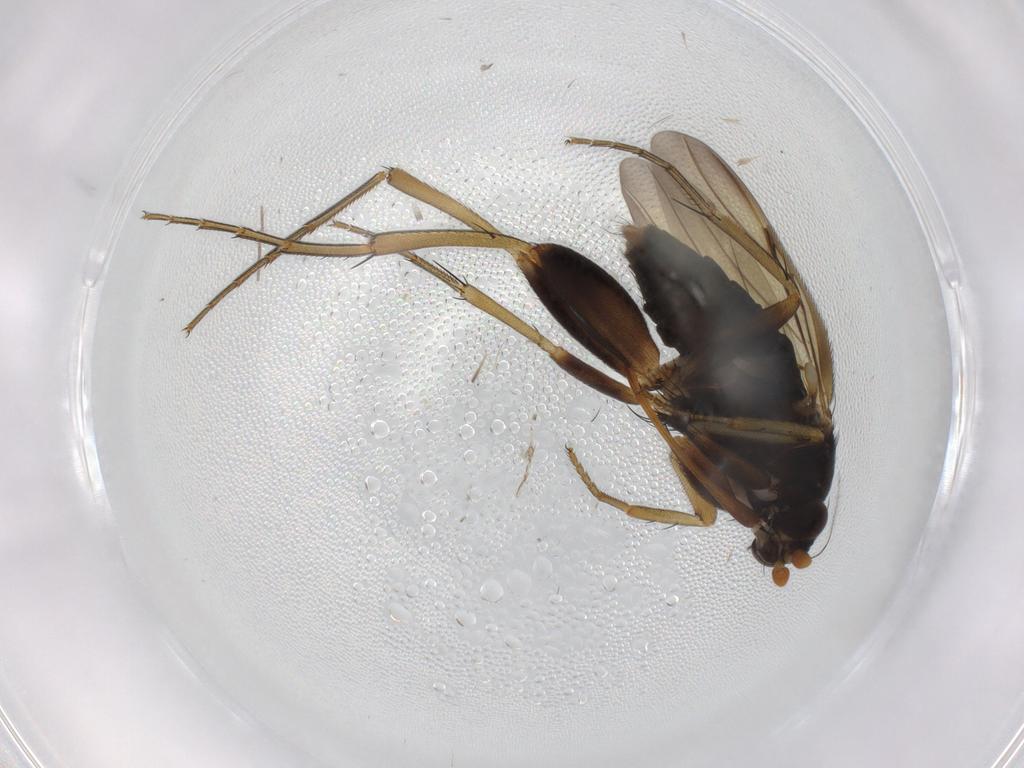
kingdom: Animalia
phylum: Arthropoda
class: Insecta
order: Diptera
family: Phoridae
